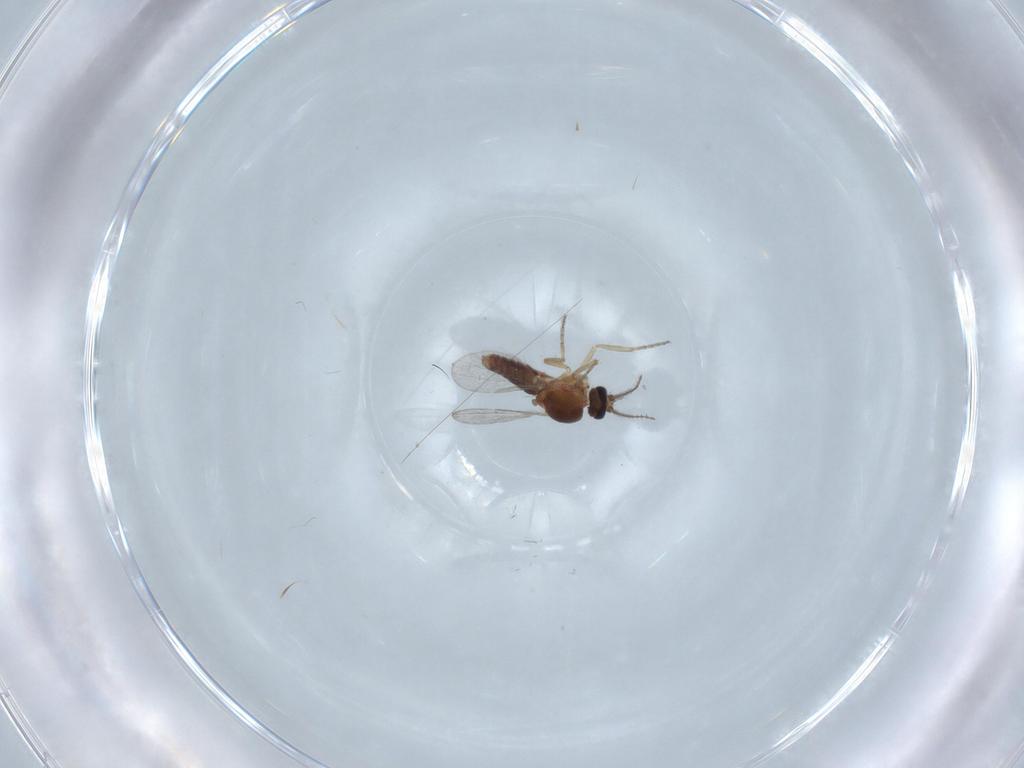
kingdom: Animalia
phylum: Arthropoda
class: Insecta
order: Diptera
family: Ceratopogonidae
